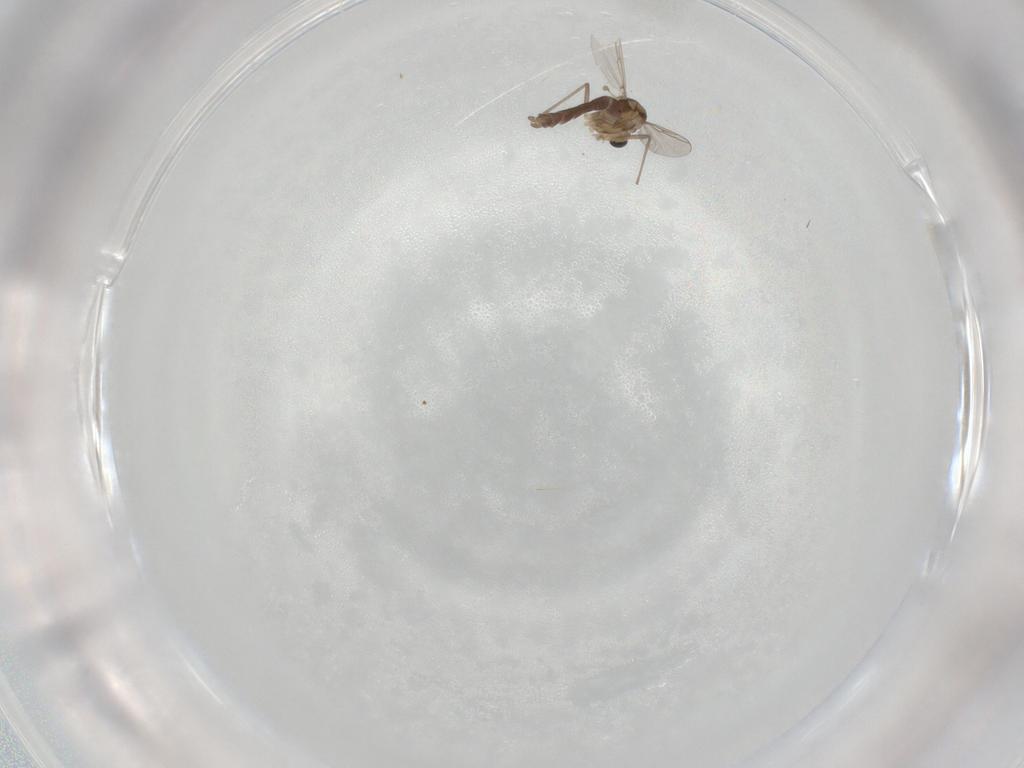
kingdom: Animalia
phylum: Arthropoda
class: Insecta
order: Diptera
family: Chironomidae
